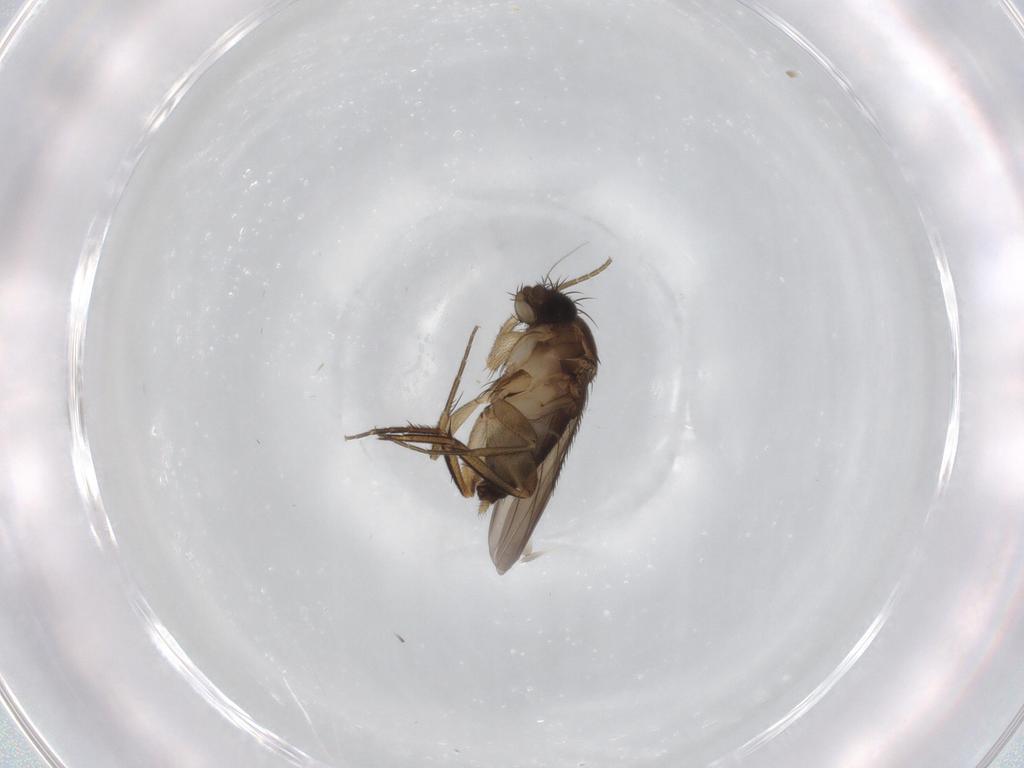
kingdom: Animalia
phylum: Arthropoda
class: Insecta
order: Diptera
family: Phoridae
